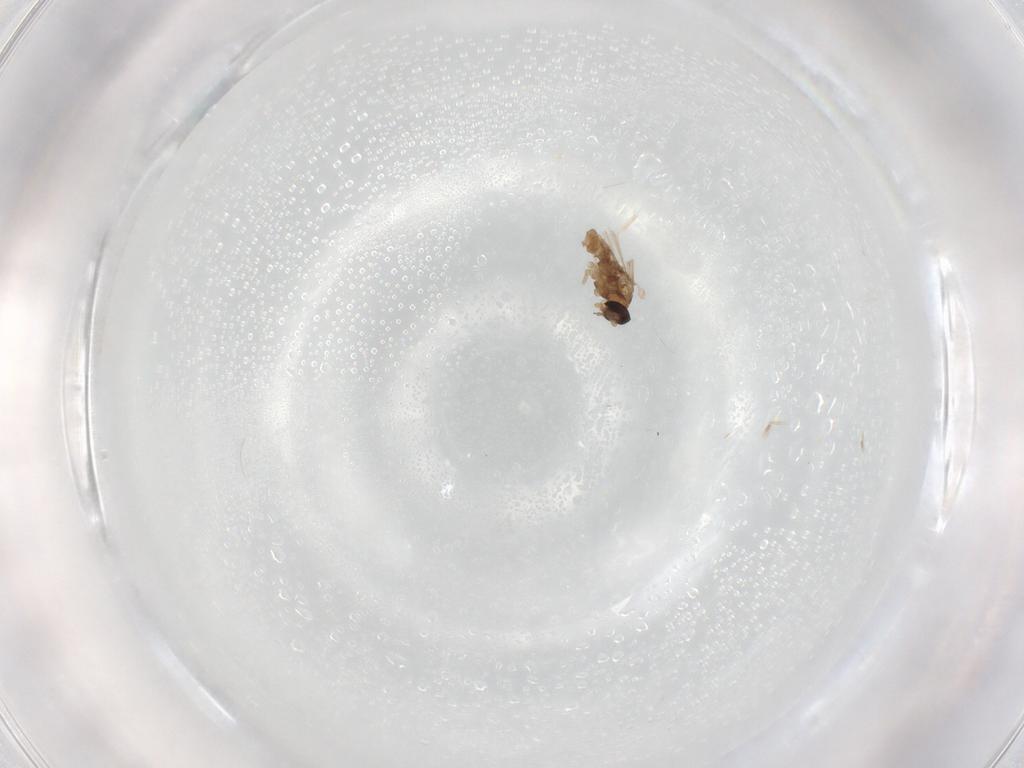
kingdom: Animalia
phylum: Arthropoda
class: Insecta
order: Diptera
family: Cecidomyiidae
